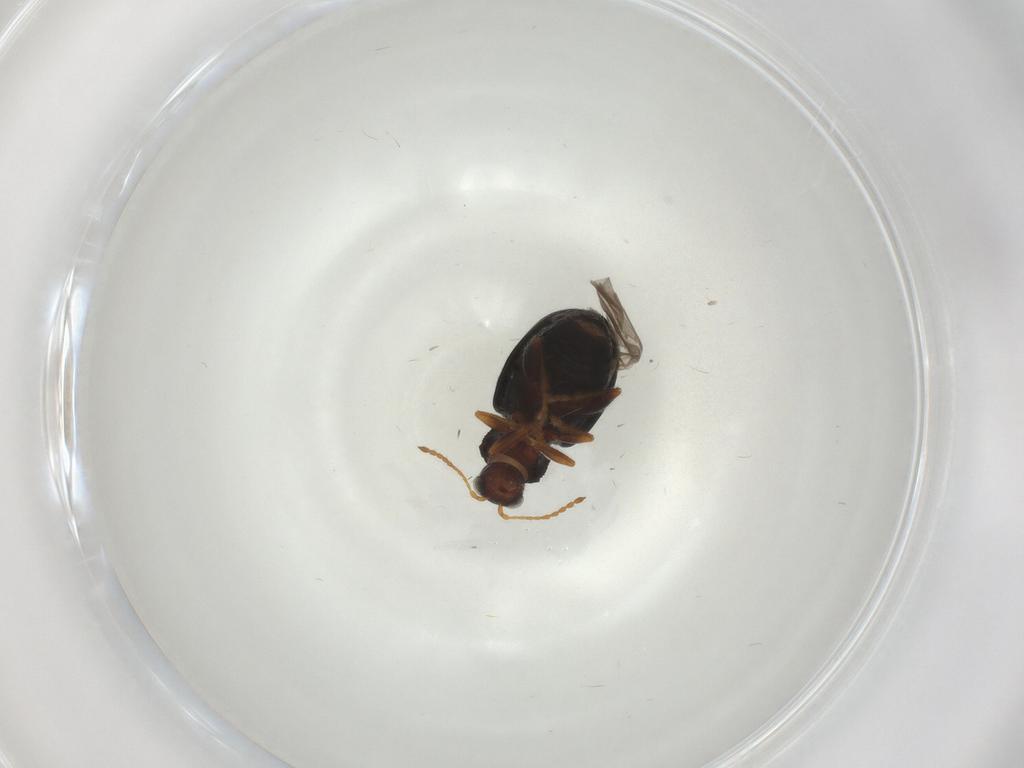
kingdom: Animalia
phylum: Arthropoda
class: Insecta
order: Coleoptera
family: Chrysomelidae
